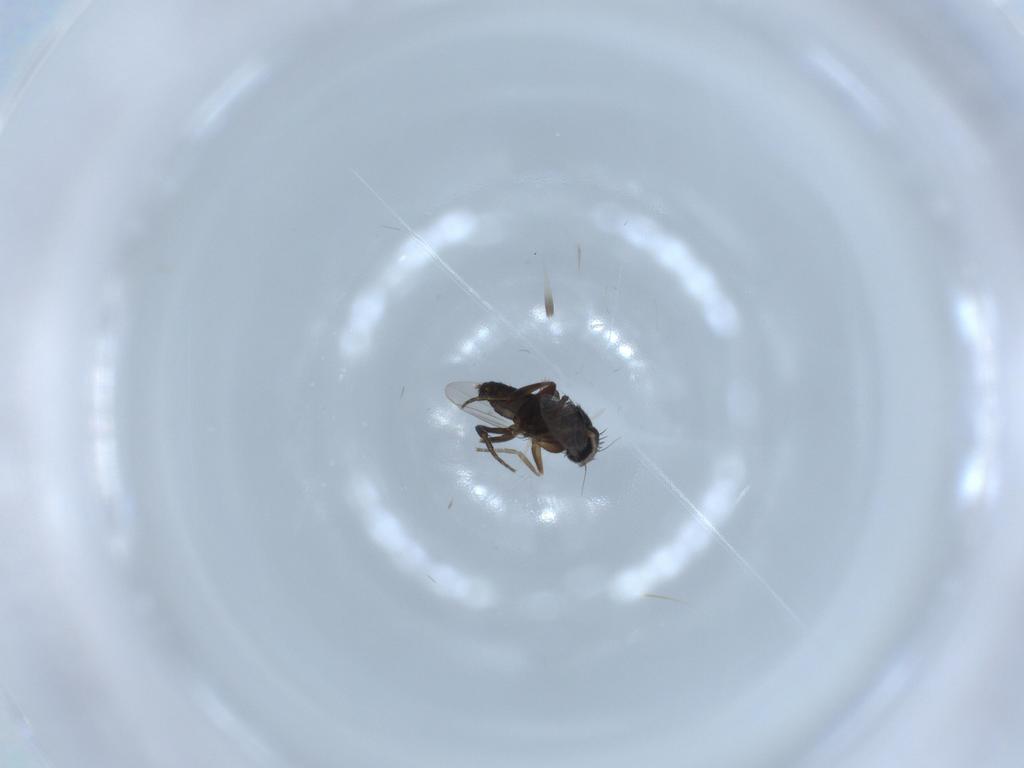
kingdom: Animalia
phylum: Arthropoda
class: Insecta
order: Diptera
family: Phoridae
